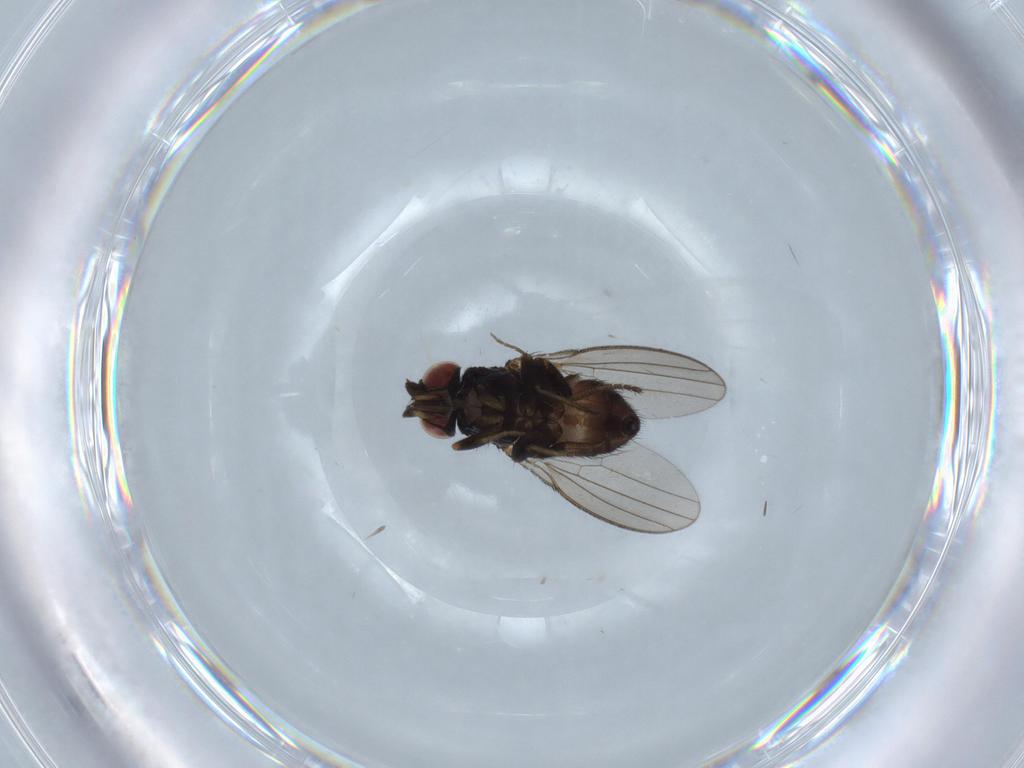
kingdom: Animalia
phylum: Arthropoda
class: Insecta
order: Diptera
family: Milichiidae
